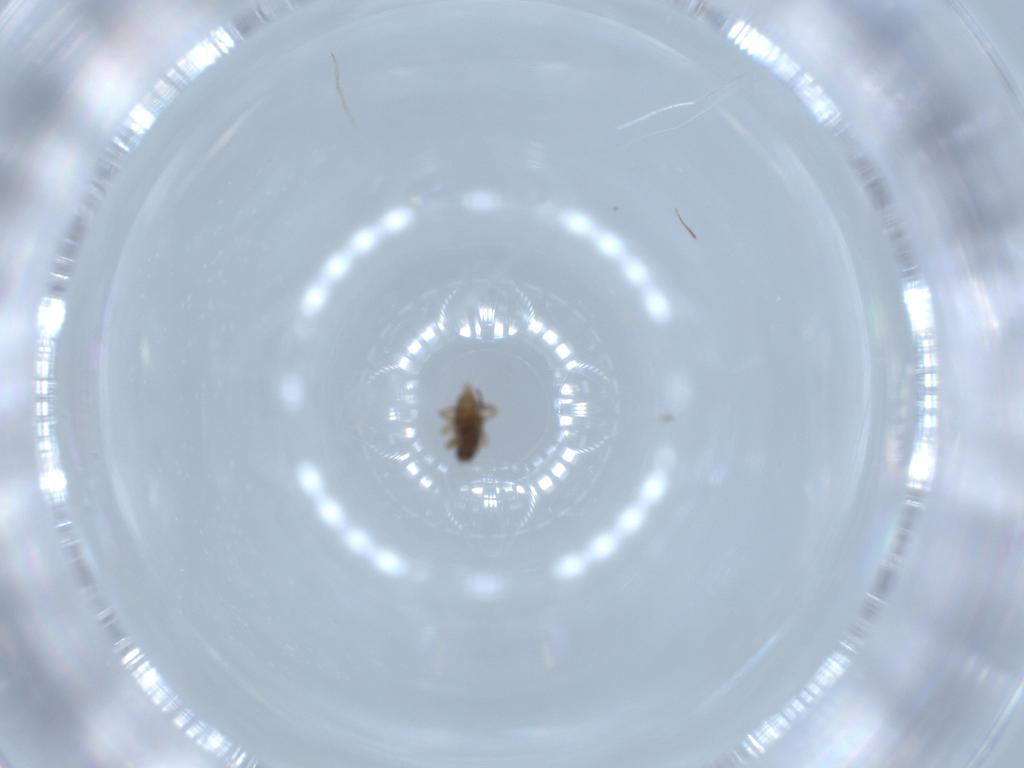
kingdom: Animalia
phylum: Arthropoda
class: Insecta
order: Diptera
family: Phoridae
